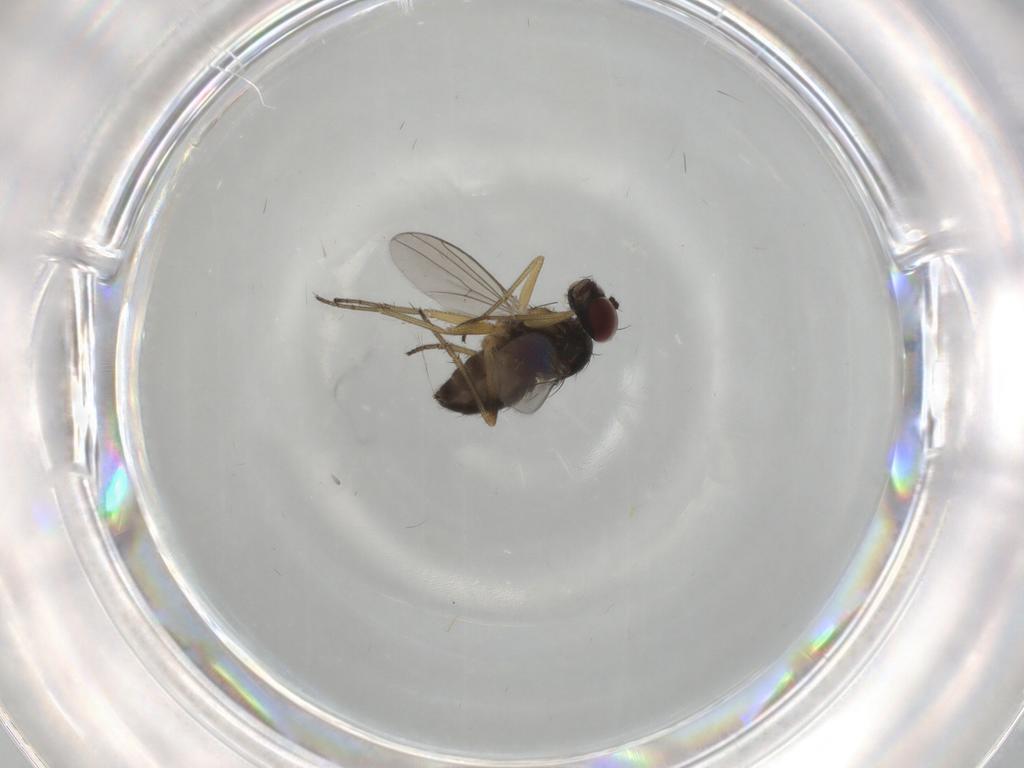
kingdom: Animalia
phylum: Arthropoda
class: Insecta
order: Diptera
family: Dolichopodidae
